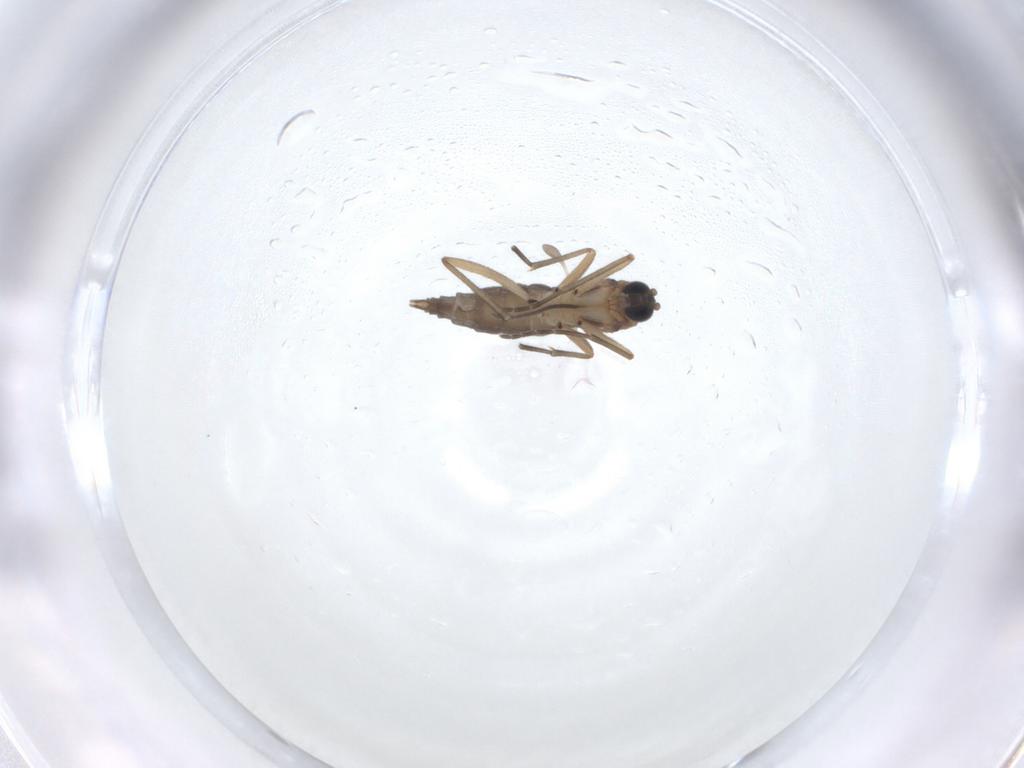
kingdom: Animalia
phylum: Arthropoda
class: Insecta
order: Diptera
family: Sciaridae
